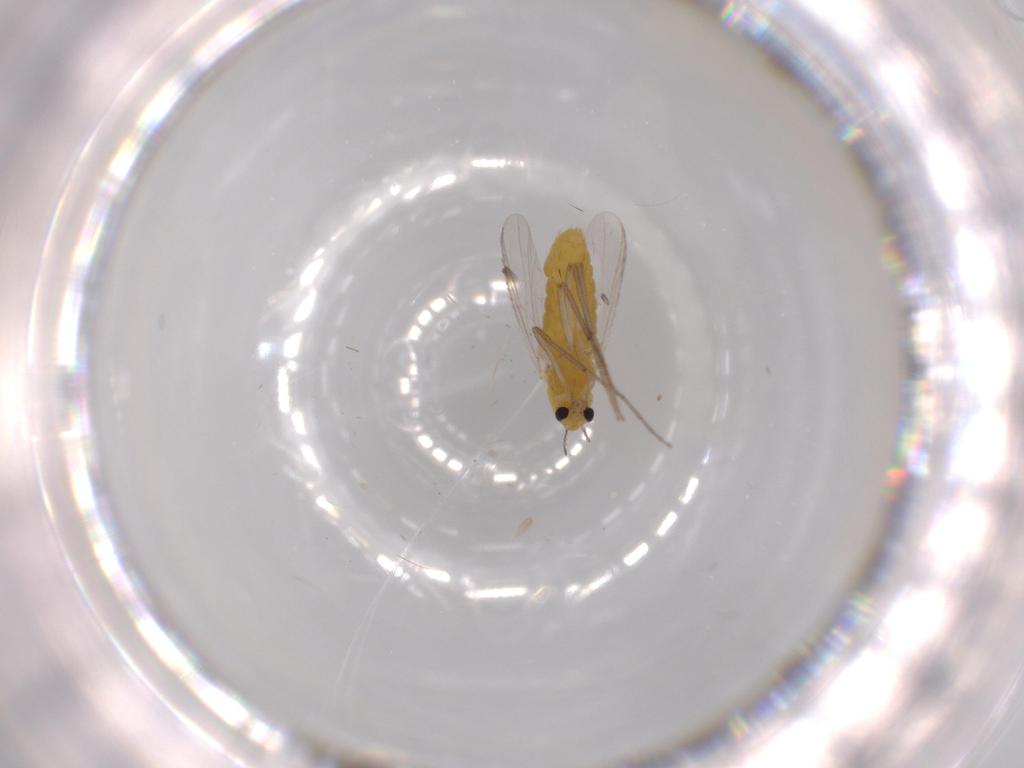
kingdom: Animalia
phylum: Arthropoda
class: Insecta
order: Diptera
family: Chironomidae
